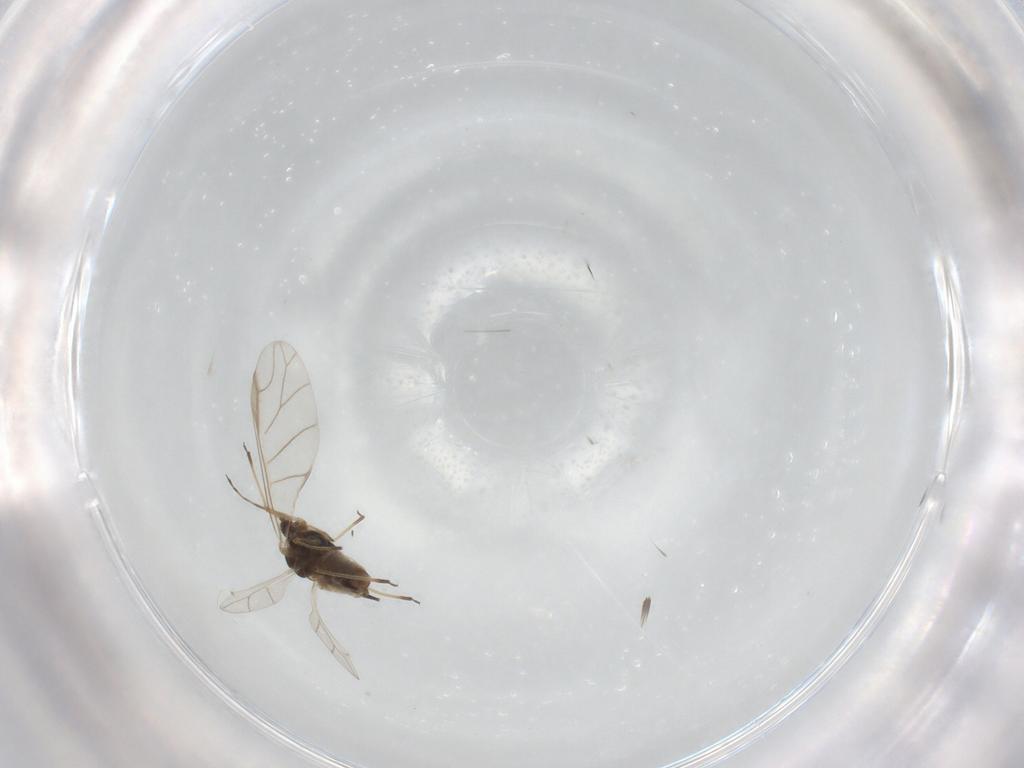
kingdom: Animalia
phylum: Arthropoda
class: Insecta
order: Hemiptera
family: Aphididae
